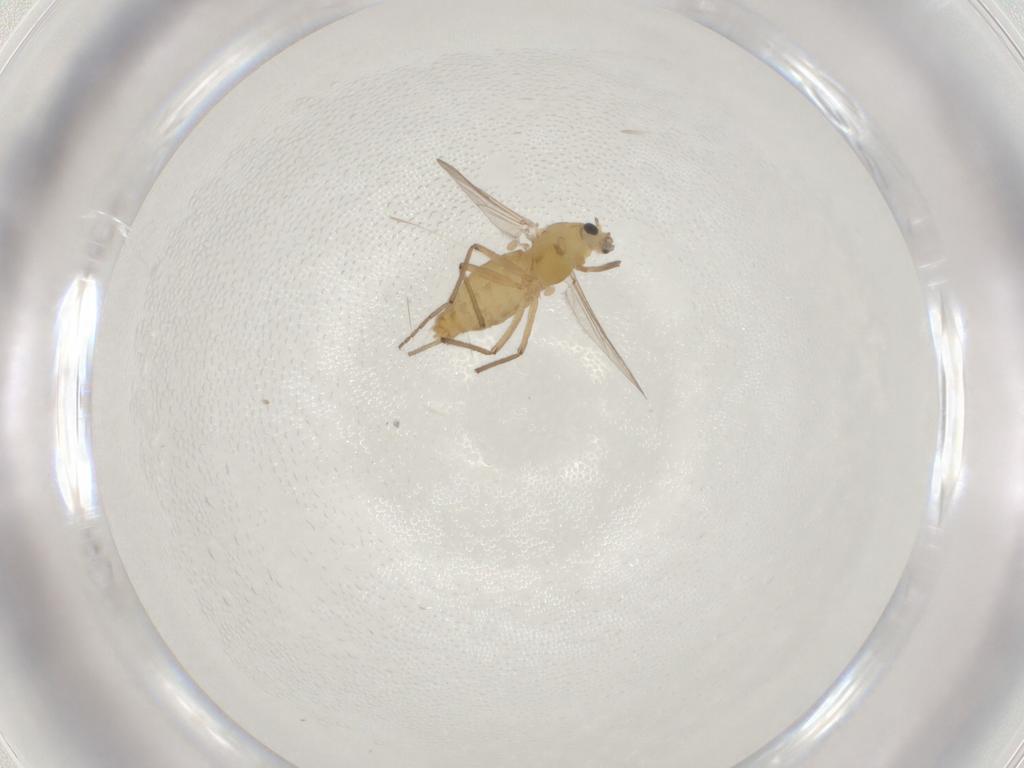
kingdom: Animalia
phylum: Arthropoda
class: Insecta
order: Diptera
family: Chironomidae
